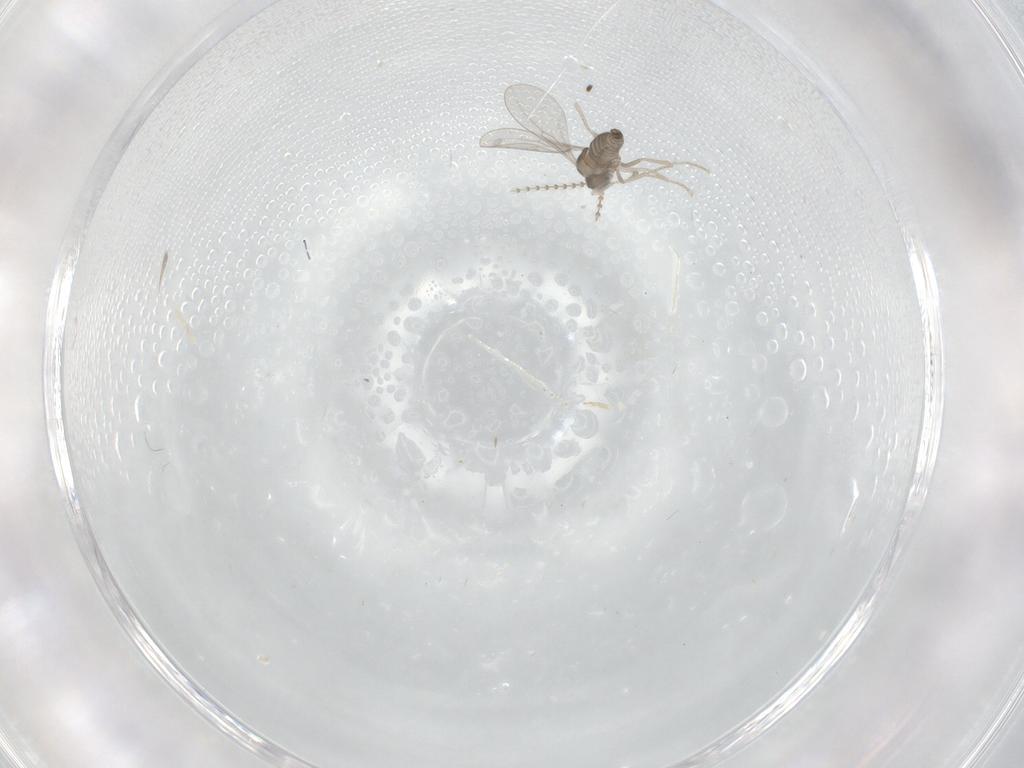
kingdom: Animalia
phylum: Arthropoda
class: Insecta
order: Diptera
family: Cecidomyiidae
